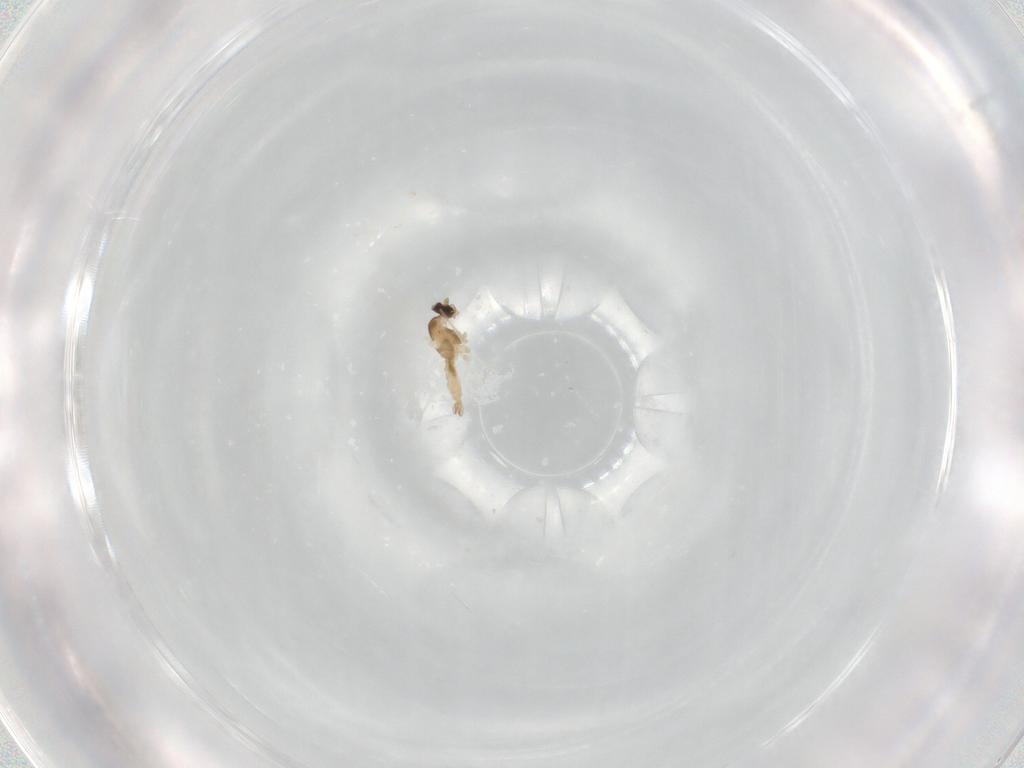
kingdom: Animalia
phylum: Arthropoda
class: Insecta
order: Diptera
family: Cecidomyiidae
